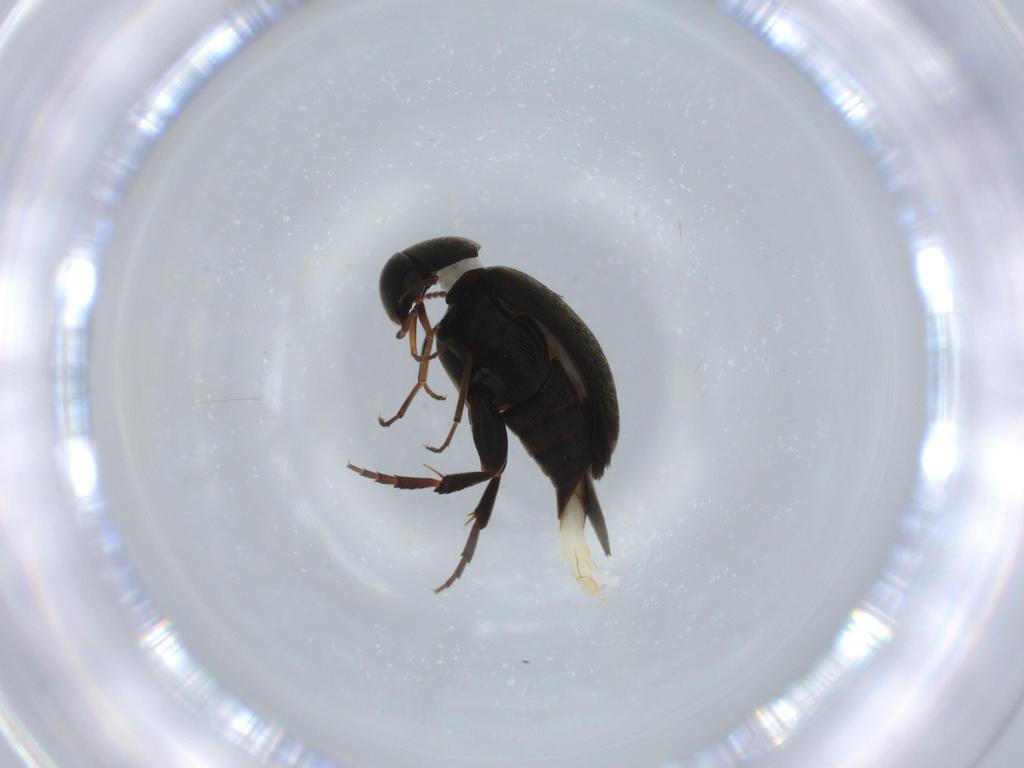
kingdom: Animalia
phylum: Arthropoda
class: Insecta
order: Coleoptera
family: Mordellidae
